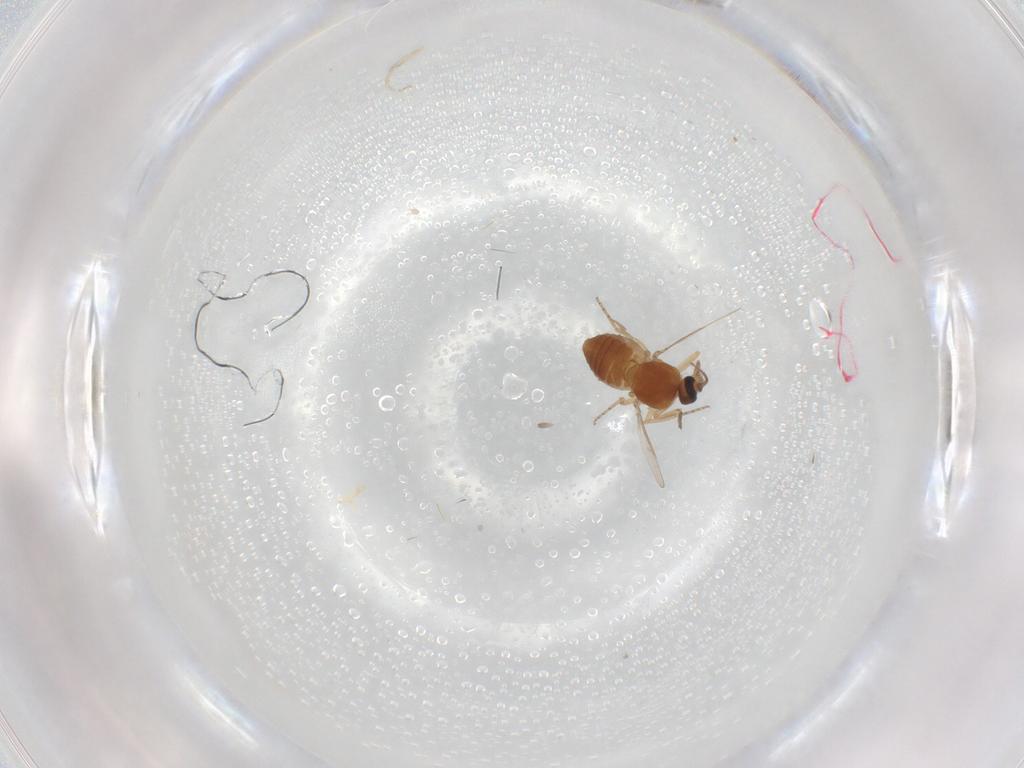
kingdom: Animalia
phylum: Arthropoda
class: Insecta
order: Diptera
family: Ceratopogonidae
